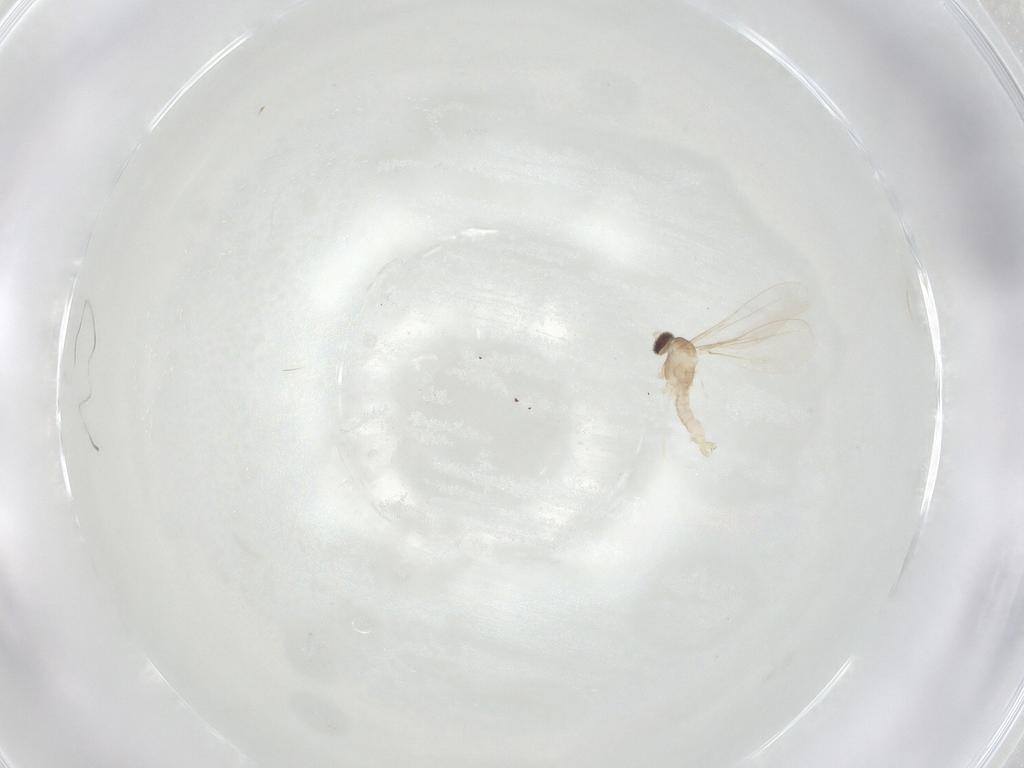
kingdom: Animalia
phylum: Arthropoda
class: Insecta
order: Diptera
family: Cecidomyiidae
